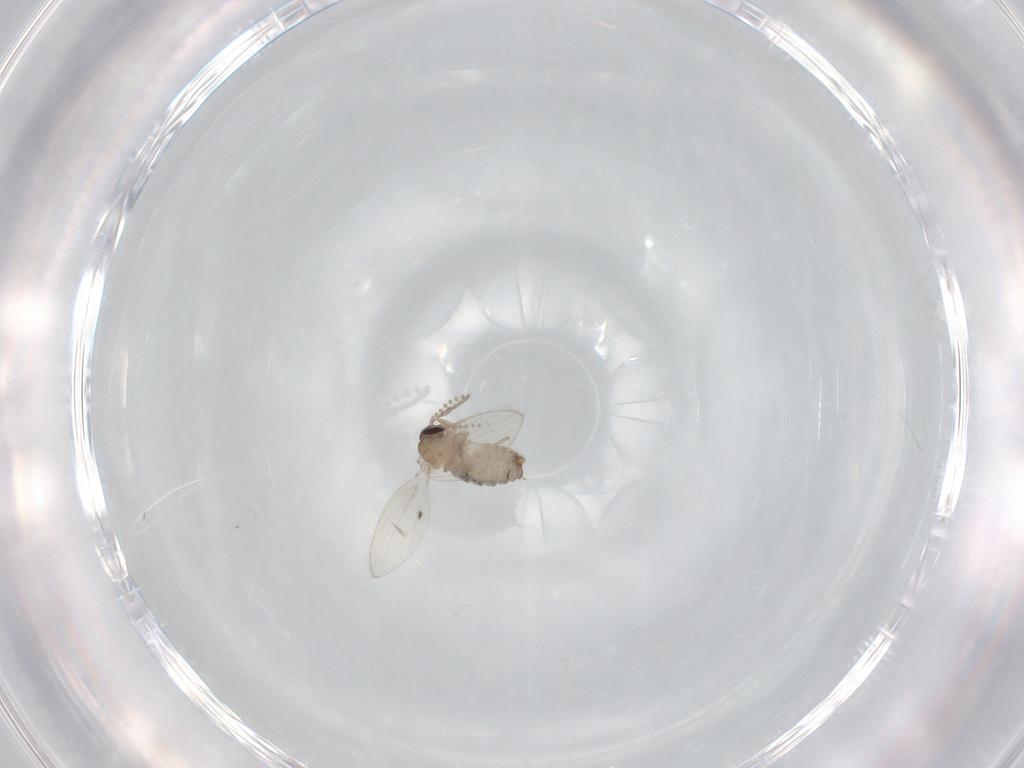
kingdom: Animalia
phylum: Arthropoda
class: Insecta
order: Diptera
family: Psychodidae
